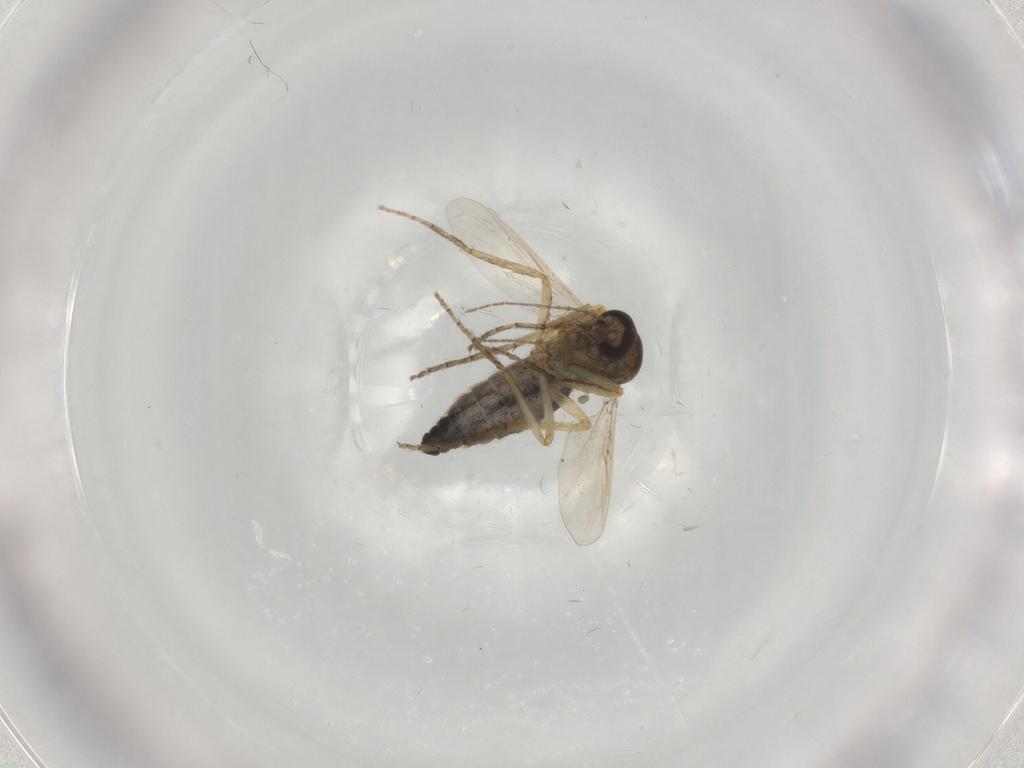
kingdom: Animalia
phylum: Arthropoda
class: Insecta
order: Diptera
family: Ceratopogonidae
